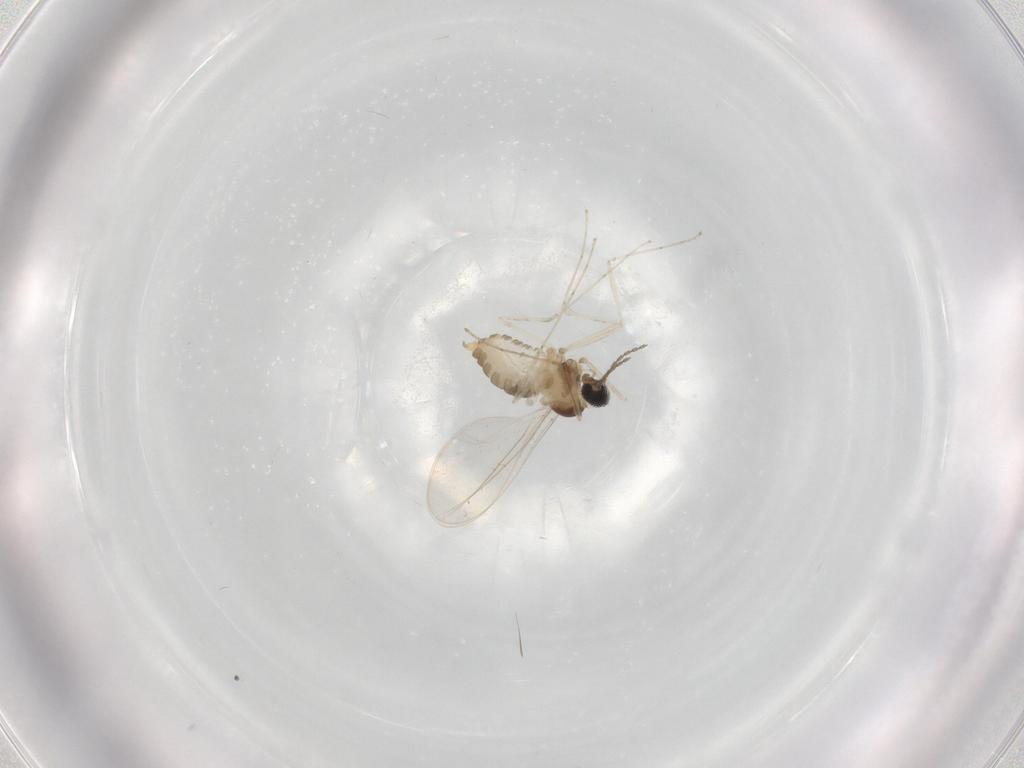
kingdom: Animalia
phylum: Arthropoda
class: Insecta
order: Diptera
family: Cecidomyiidae
